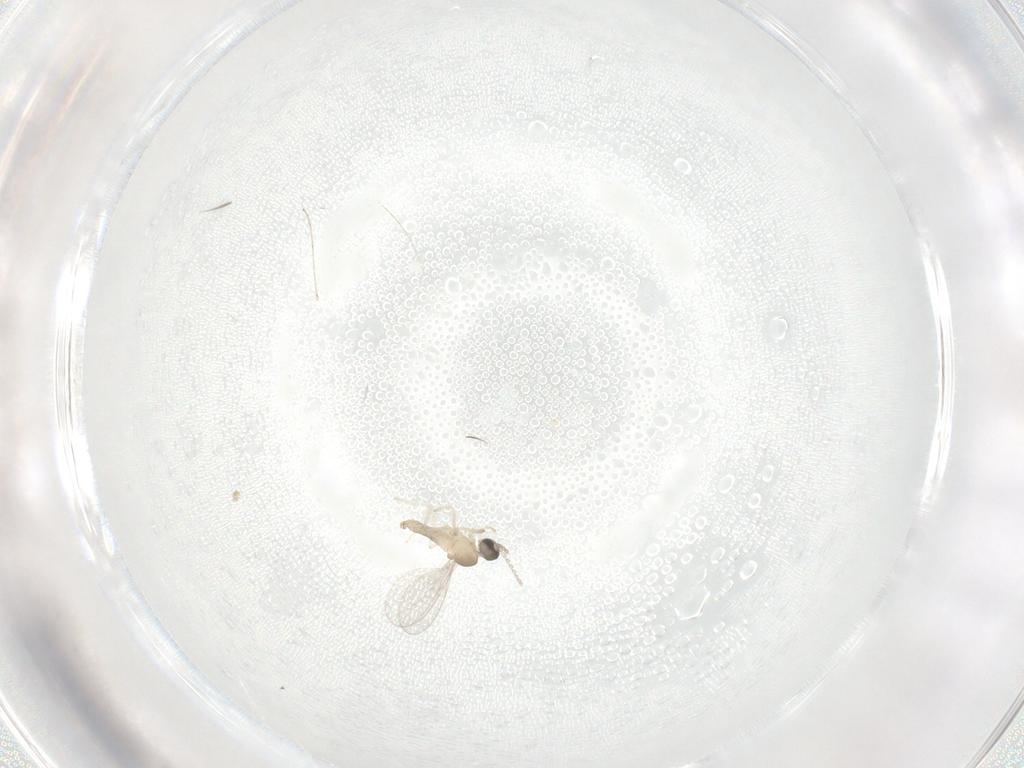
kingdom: Animalia
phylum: Arthropoda
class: Insecta
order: Diptera
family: Cecidomyiidae
